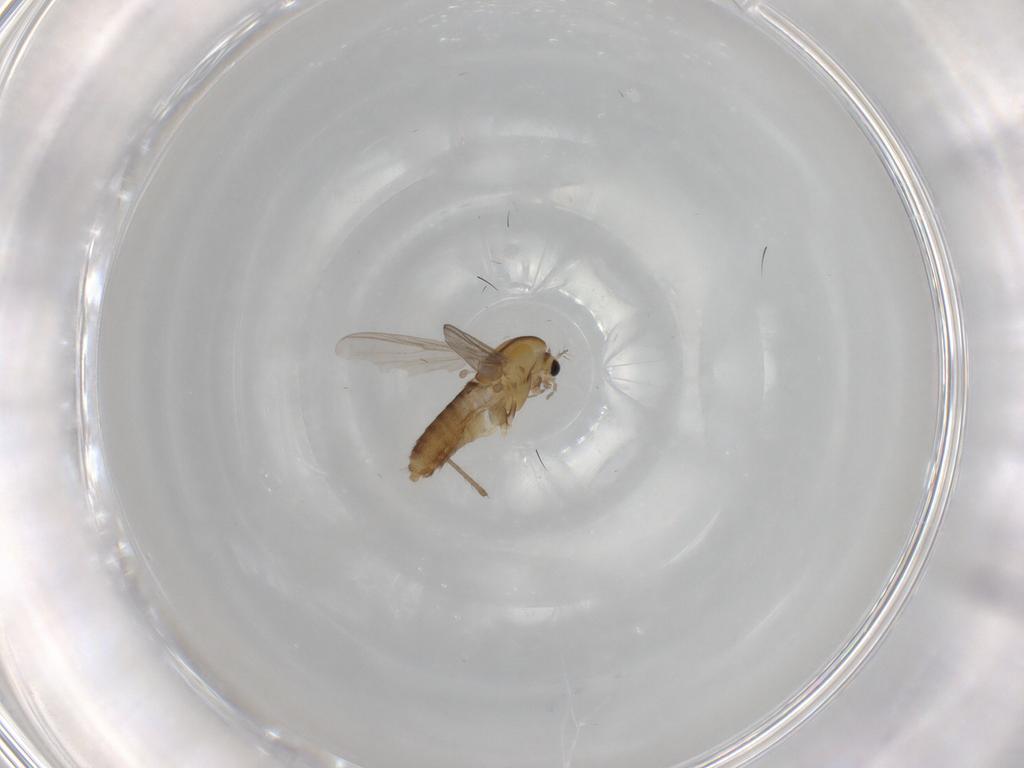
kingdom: Animalia
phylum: Arthropoda
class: Insecta
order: Diptera
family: Chironomidae
